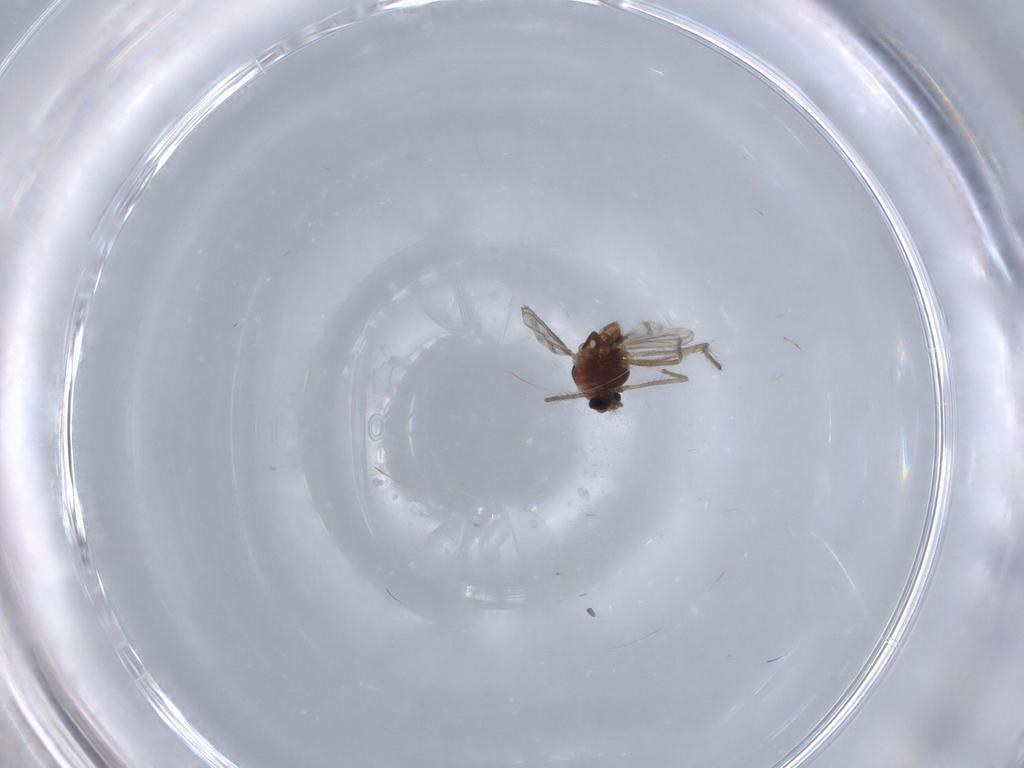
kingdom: Animalia
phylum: Arthropoda
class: Insecta
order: Diptera
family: Chironomidae
